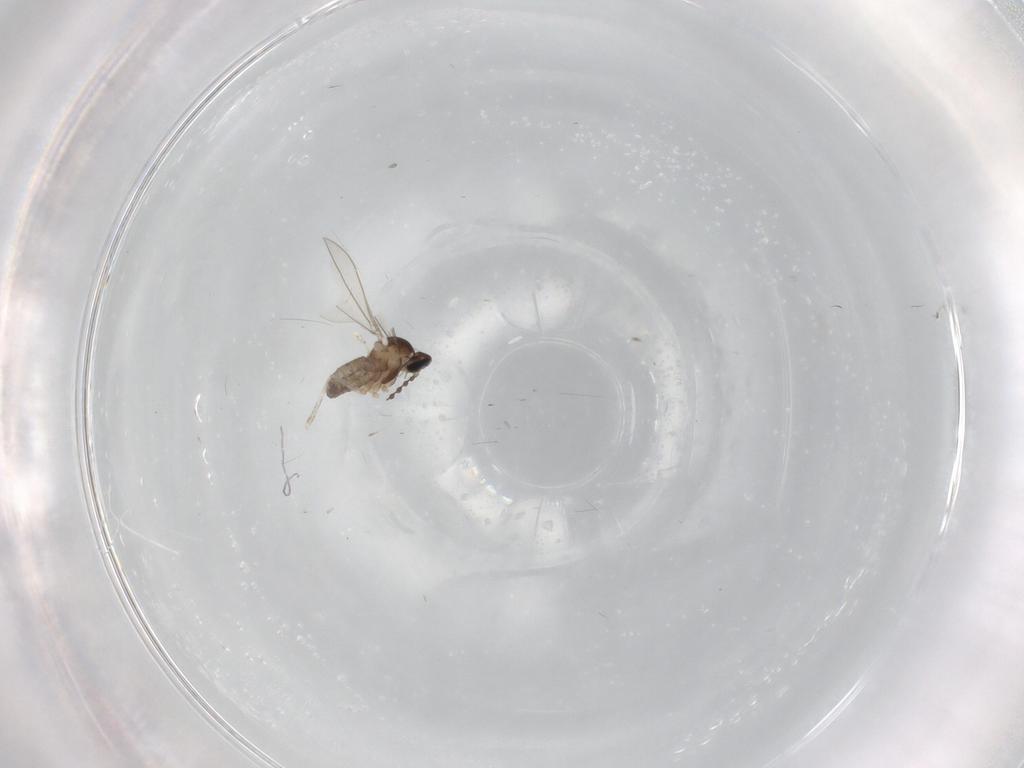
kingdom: Animalia
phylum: Arthropoda
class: Insecta
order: Diptera
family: Cecidomyiidae
